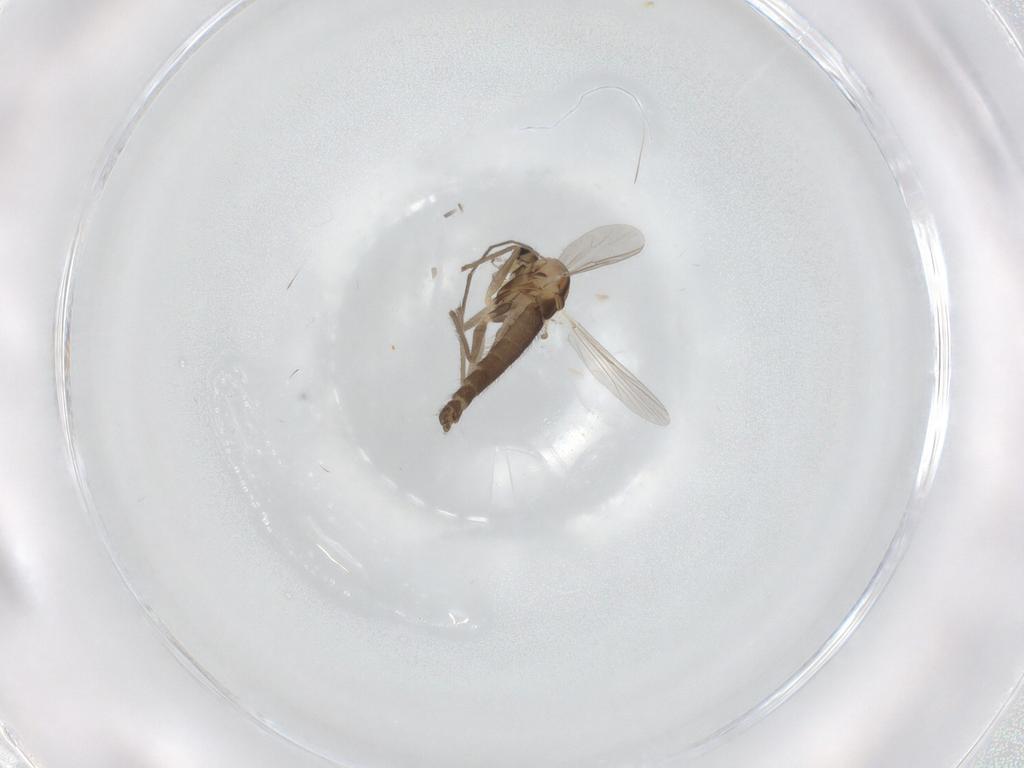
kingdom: Animalia
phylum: Arthropoda
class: Insecta
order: Diptera
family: Chironomidae
